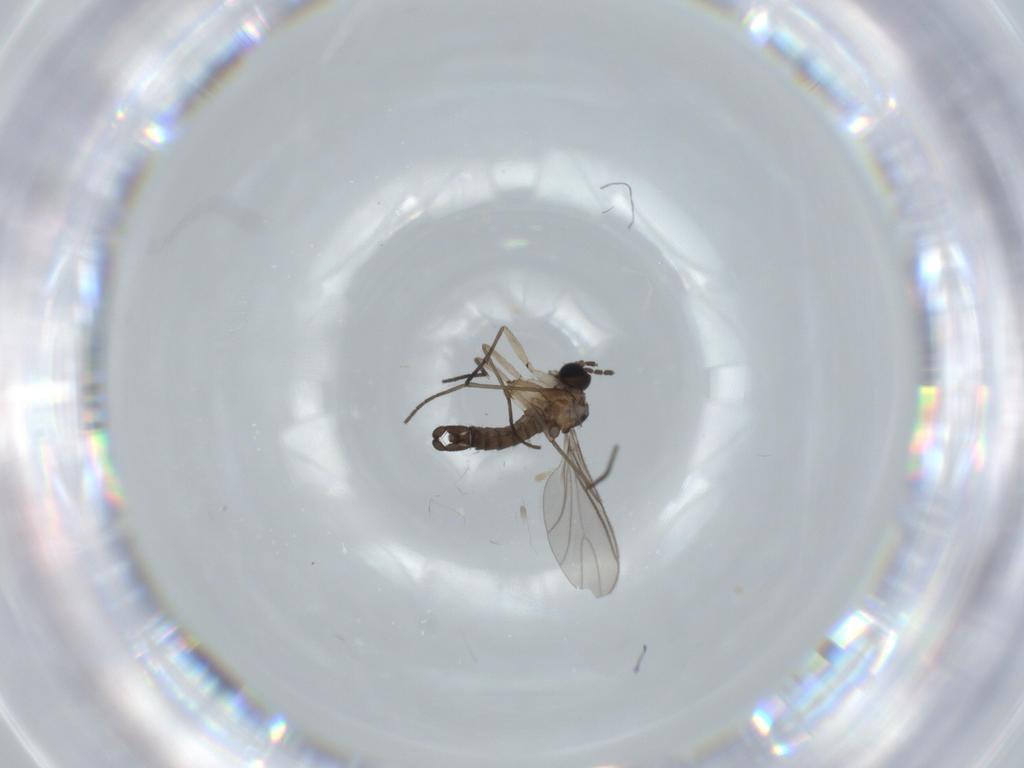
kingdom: Animalia
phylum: Arthropoda
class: Insecta
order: Diptera
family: Sciaridae
